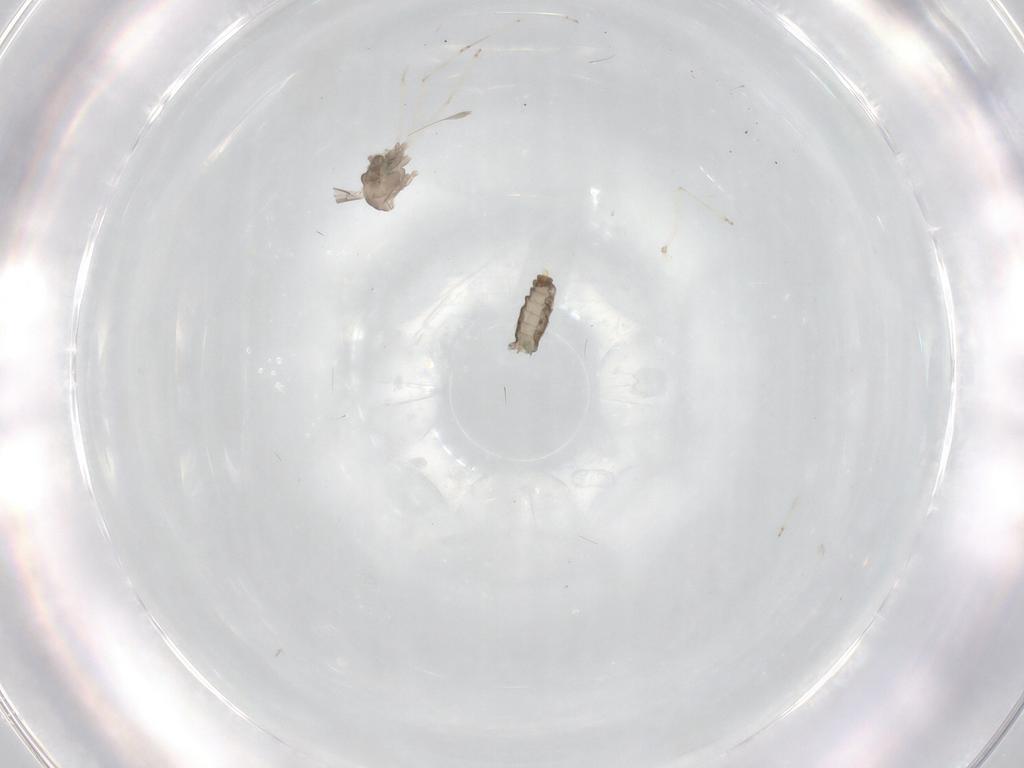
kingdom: Animalia
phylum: Arthropoda
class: Insecta
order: Diptera
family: Cecidomyiidae
